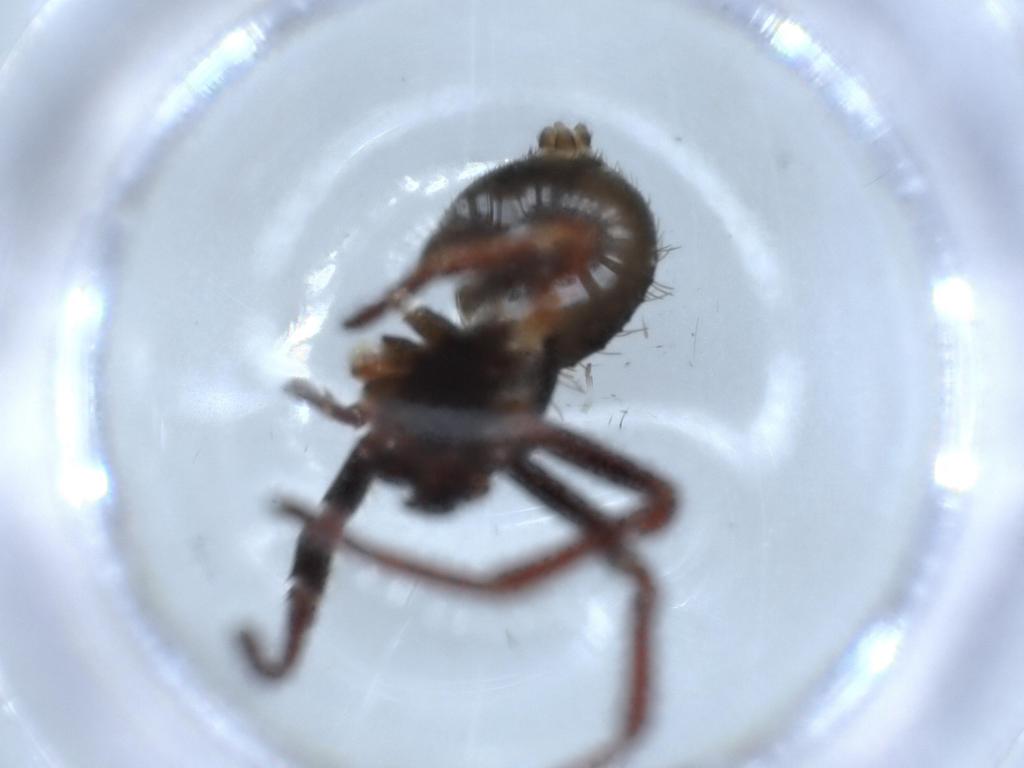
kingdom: Animalia
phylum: Arthropoda
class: Arachnida
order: Araneae
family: Thomisidae
